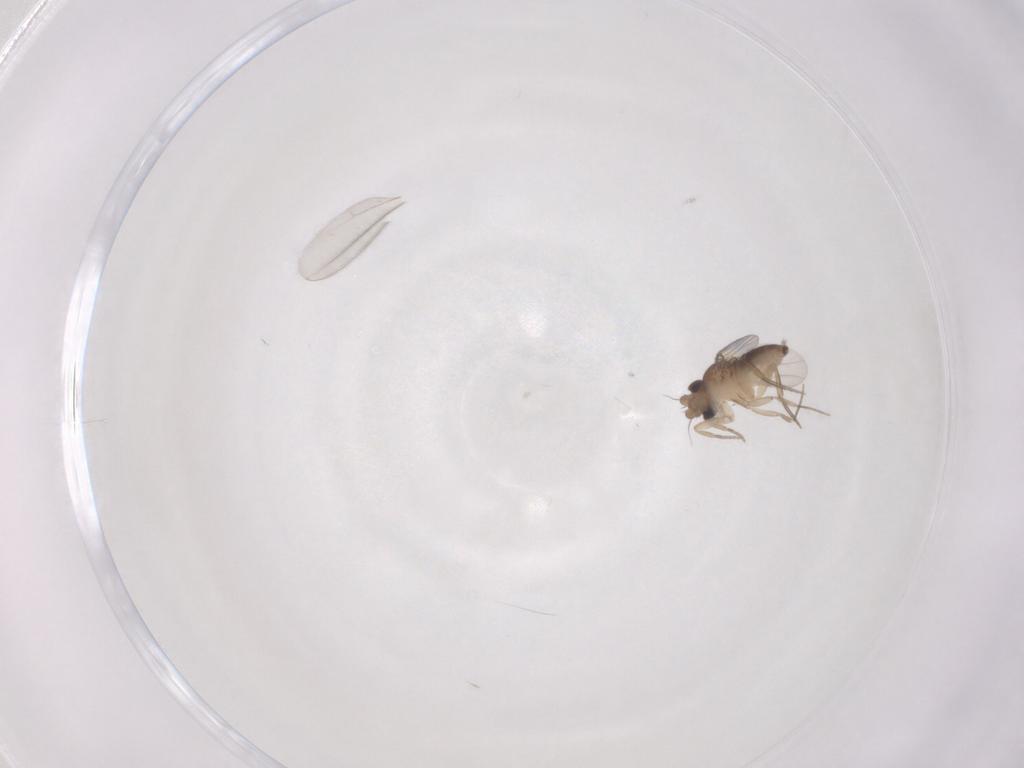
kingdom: Animalia
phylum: Arthropoda
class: Insecta
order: Diptera
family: Phoridae
